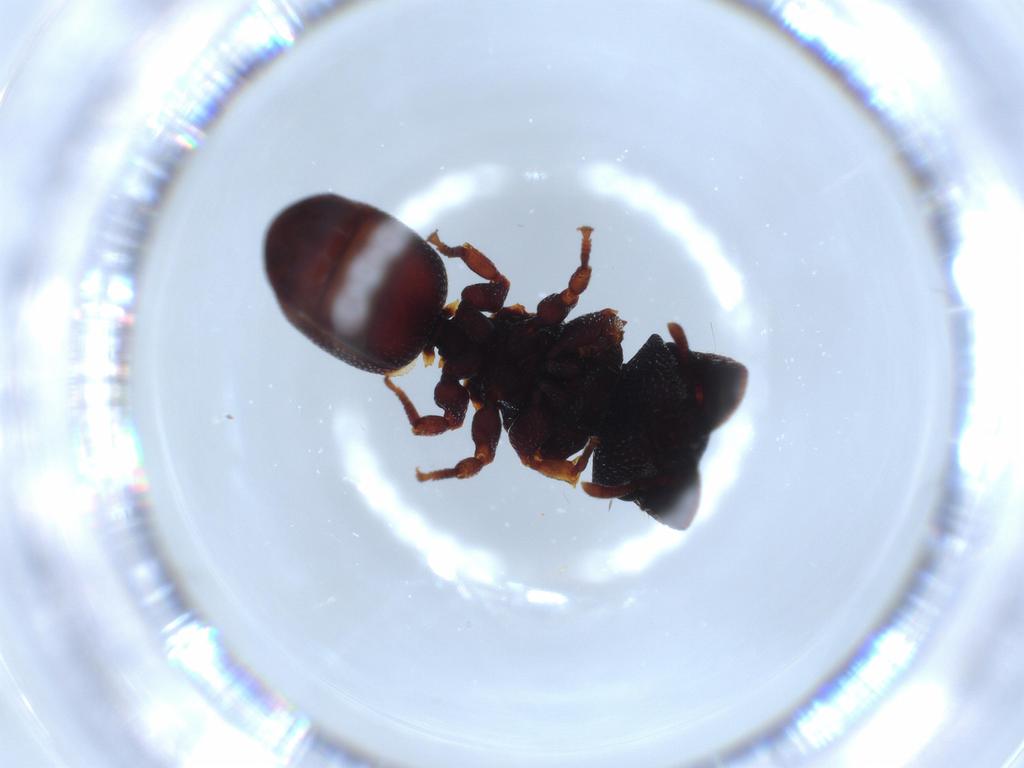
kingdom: Animalia
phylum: Arthropoda
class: Insecta
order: Hymenoptera
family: Formicidae
